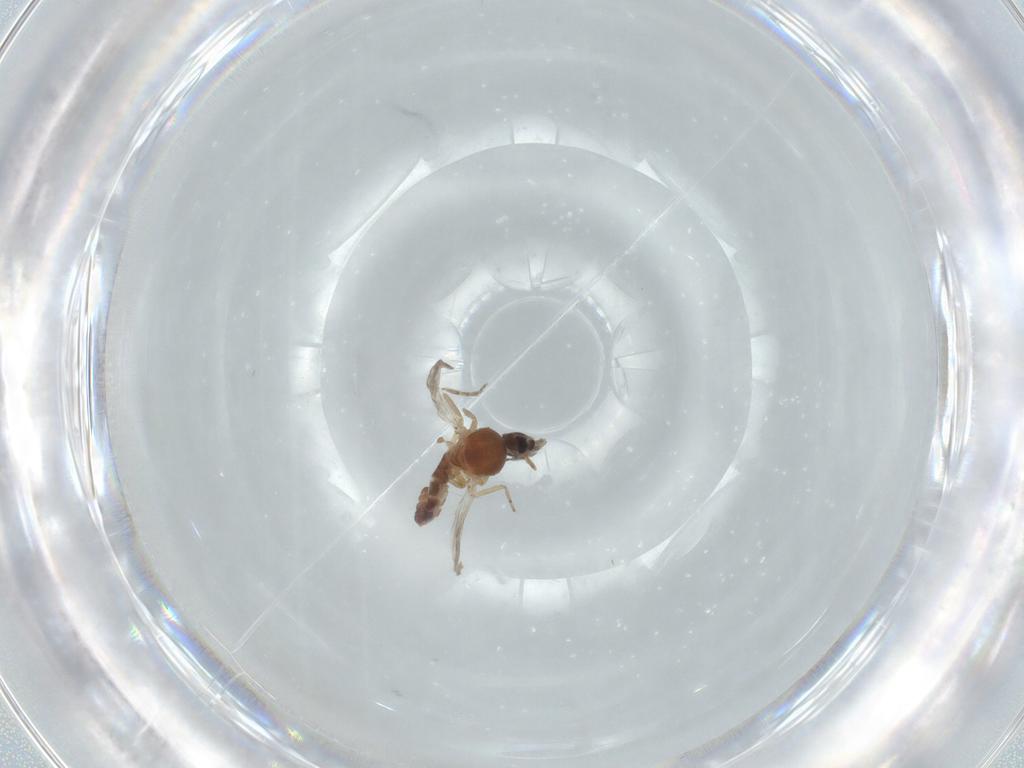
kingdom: Animalia
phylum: Arthropoda
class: Insecta
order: Diptera
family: Ceratopogonidae
